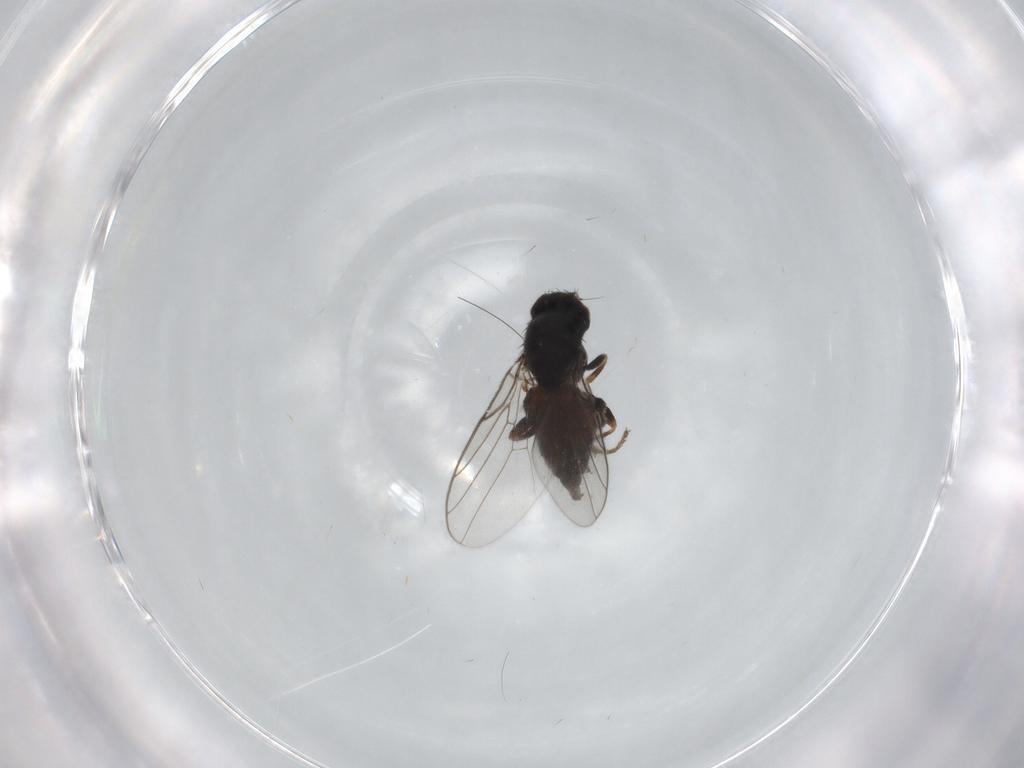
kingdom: Animalia
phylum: Arthropoda
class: Insecta
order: Diptera
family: Chloropidae
